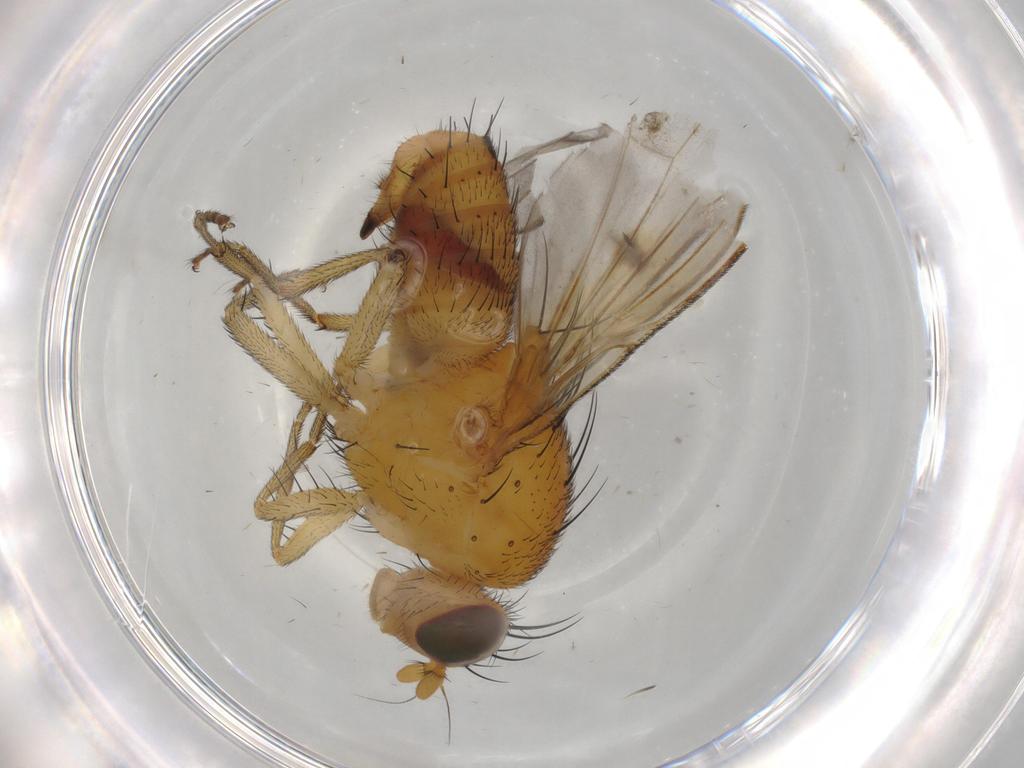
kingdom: Animalia
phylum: Arthropoda
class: Insecta
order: Diptera
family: Lauxaniidae
